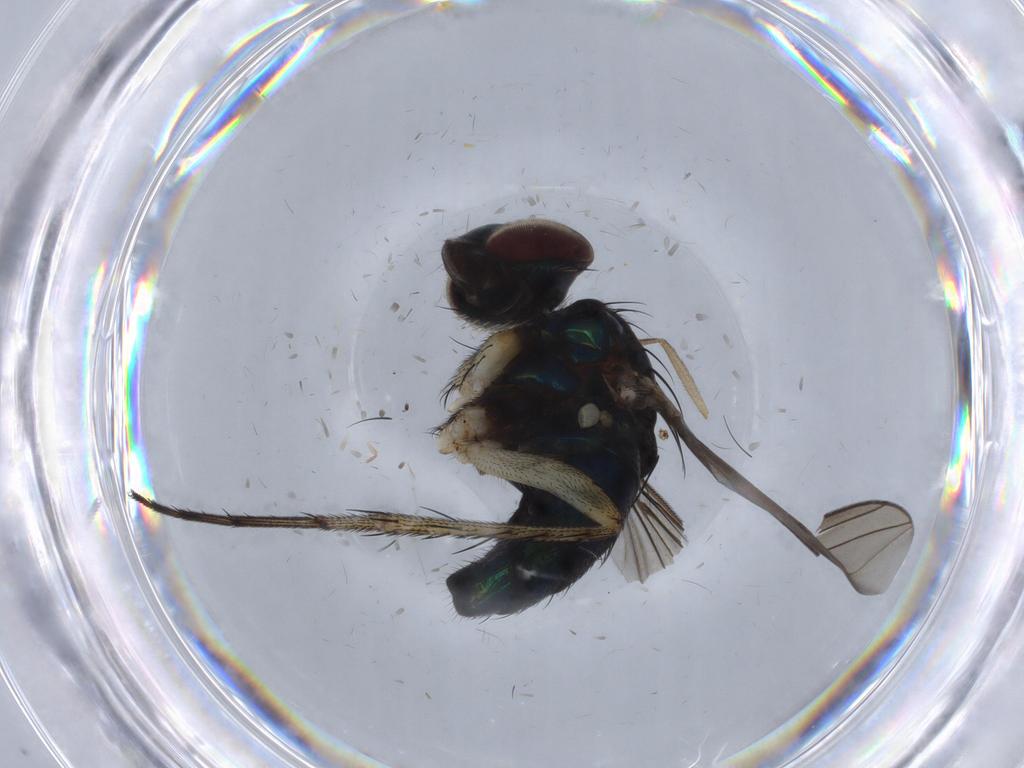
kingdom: Animalia
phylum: Arthropoda
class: Insecta
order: Diptera
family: Sciaridae
